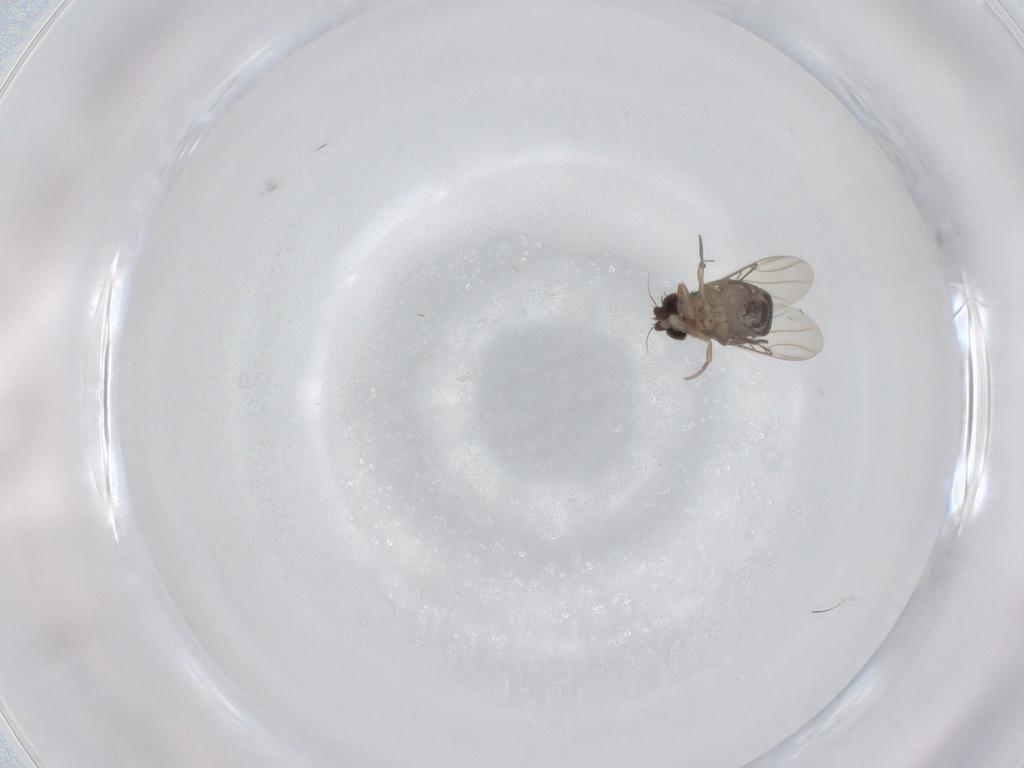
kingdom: Animalia
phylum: Arthropoda
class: Insecta
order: Diptera
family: Phoridae
